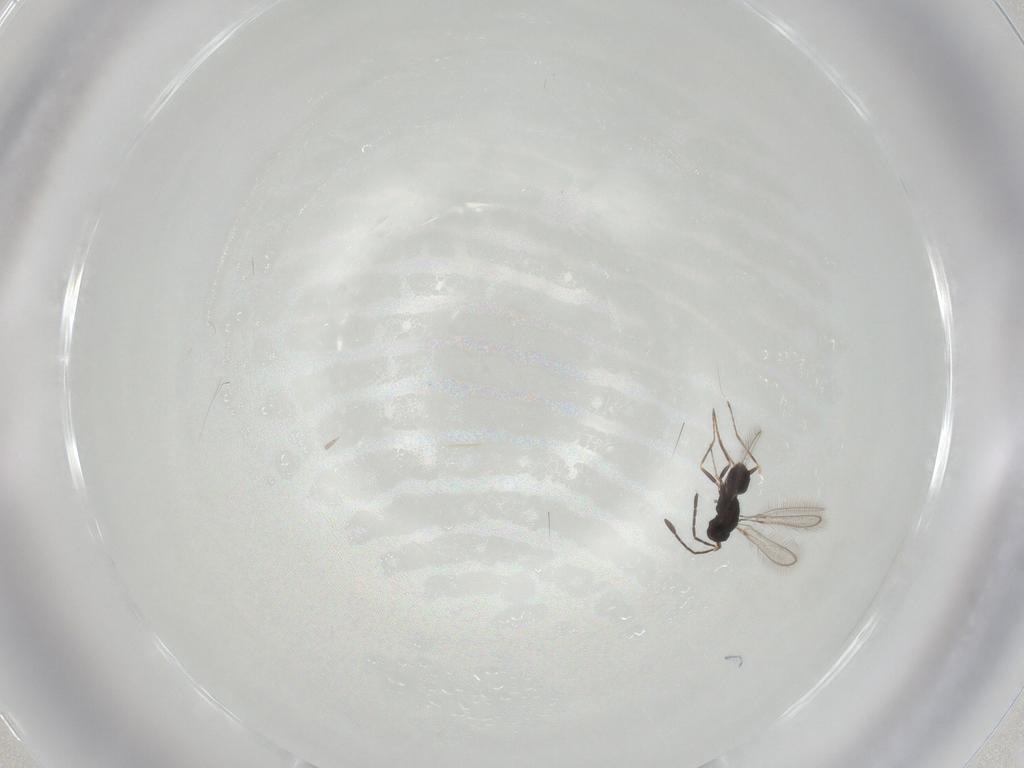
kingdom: Animalia
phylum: Arthropoda
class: Insecta
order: Hymenoptera
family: Mymaridae
